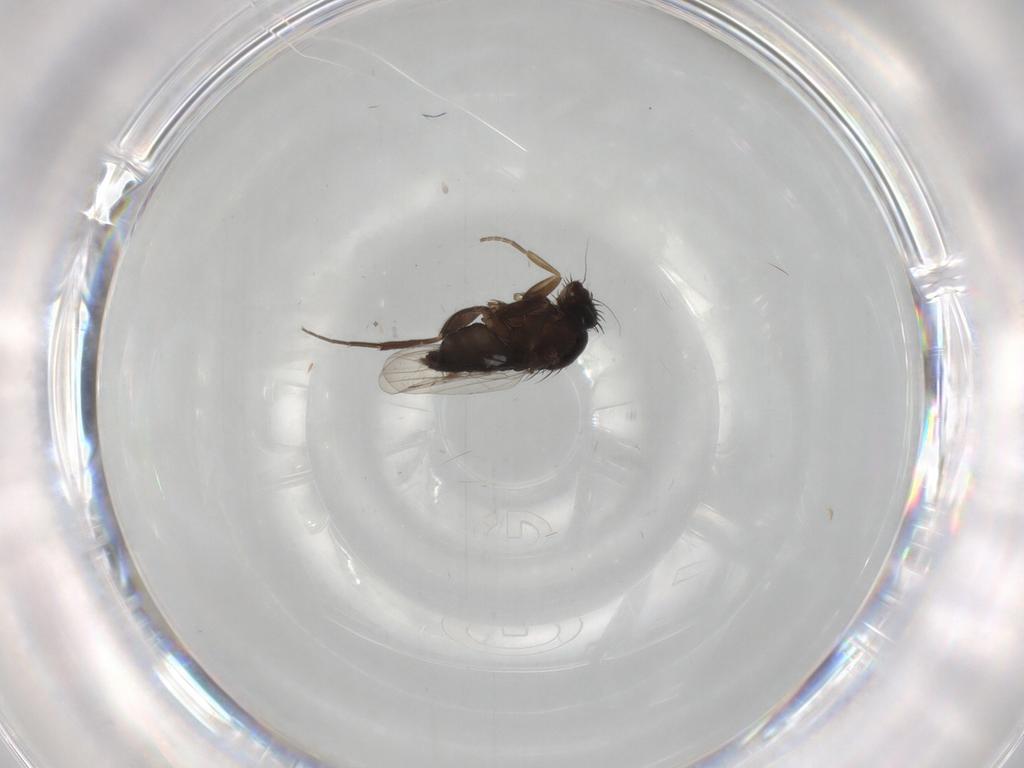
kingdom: Animalia
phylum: Arthropoda
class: Insecta
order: Diptera
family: Phoridae
